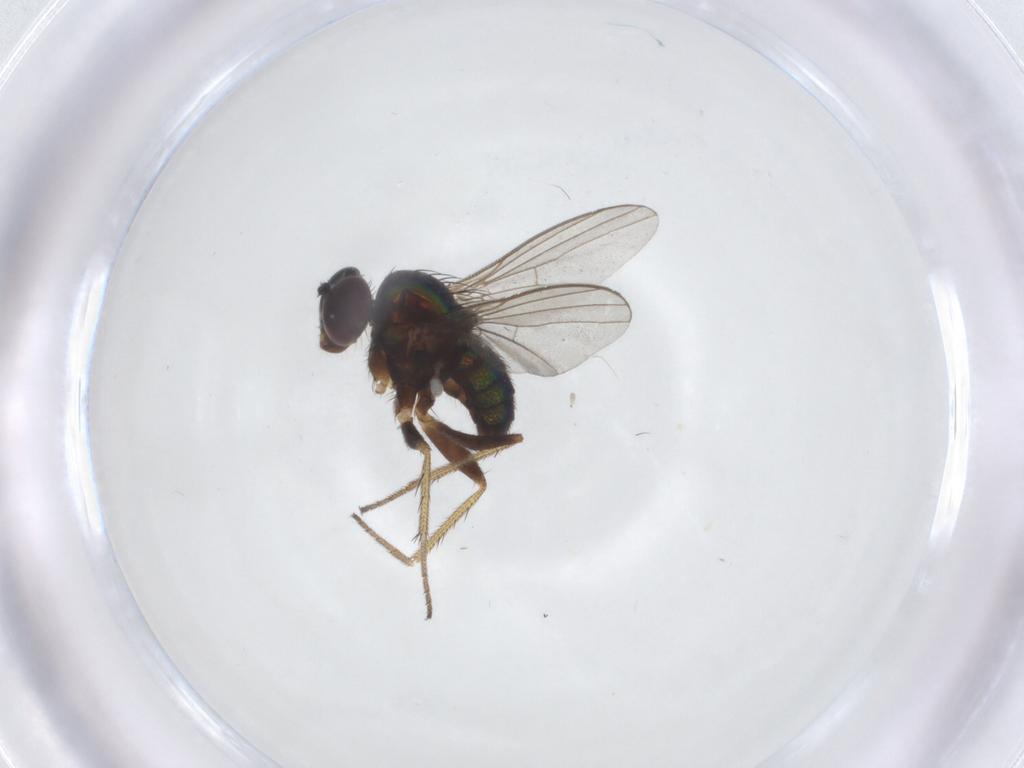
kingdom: Animalia
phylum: Arthropoda
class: Insecta
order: Diptera
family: Dolichopodidae
